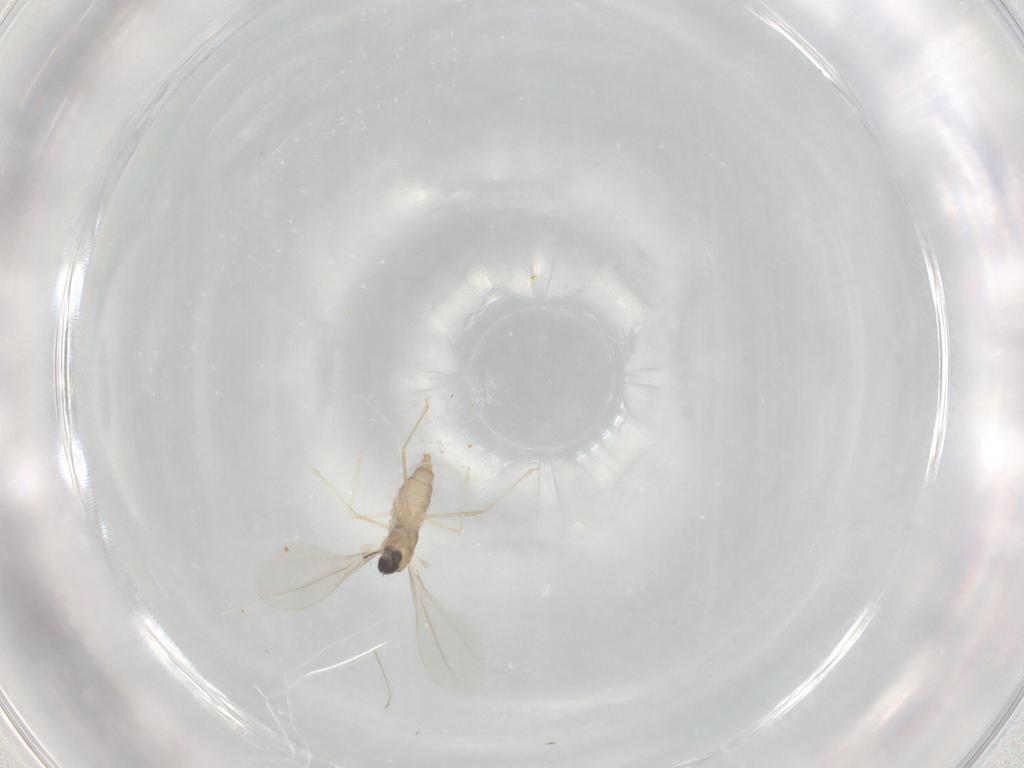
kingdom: Animalia
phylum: Arthropoda
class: Insecta
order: Diptera
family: Cecidomyiidae
